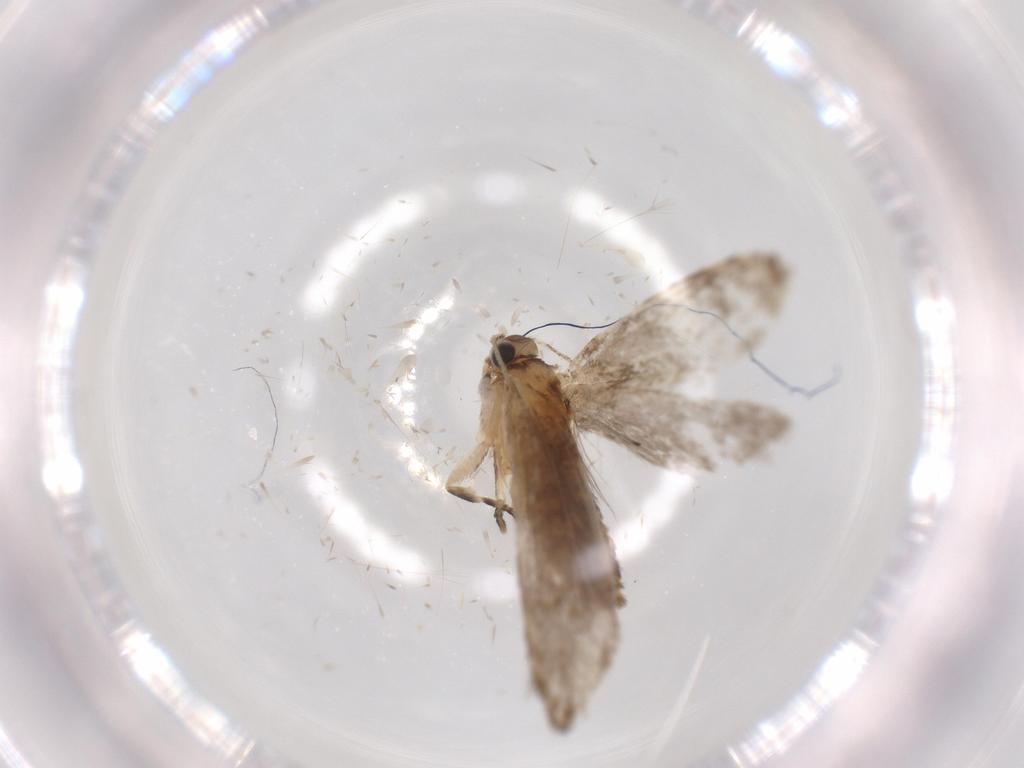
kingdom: Animalia
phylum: Arthropoda
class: Insecta
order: Lepidoptera
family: Tineidae
